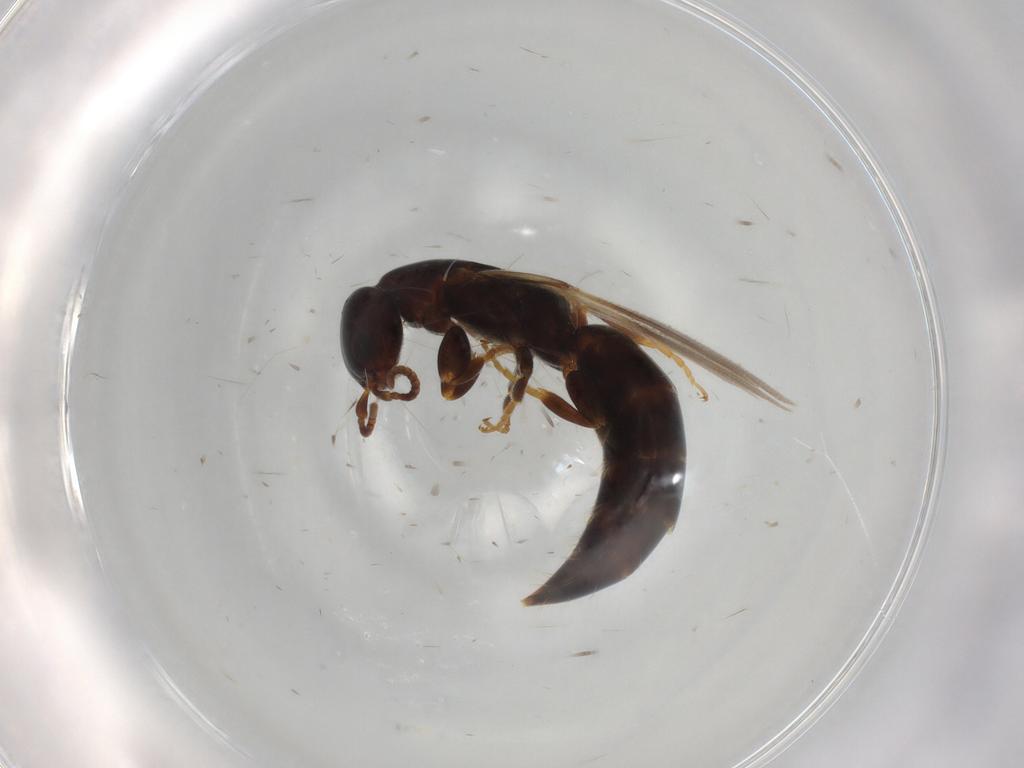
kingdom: Animalia
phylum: Arthropoda
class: Insecta
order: Hymenoptera
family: Bethylidae
